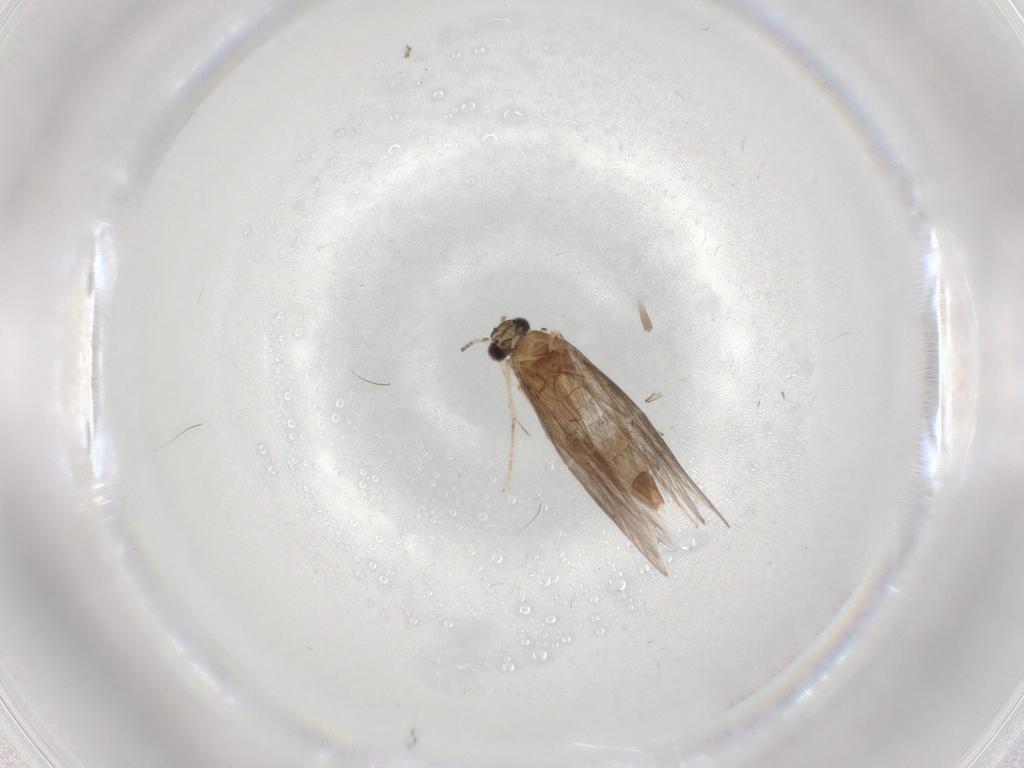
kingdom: Animalia
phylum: Arthropoda
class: Insecta
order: Trichoptera
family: Hydroptilidae
